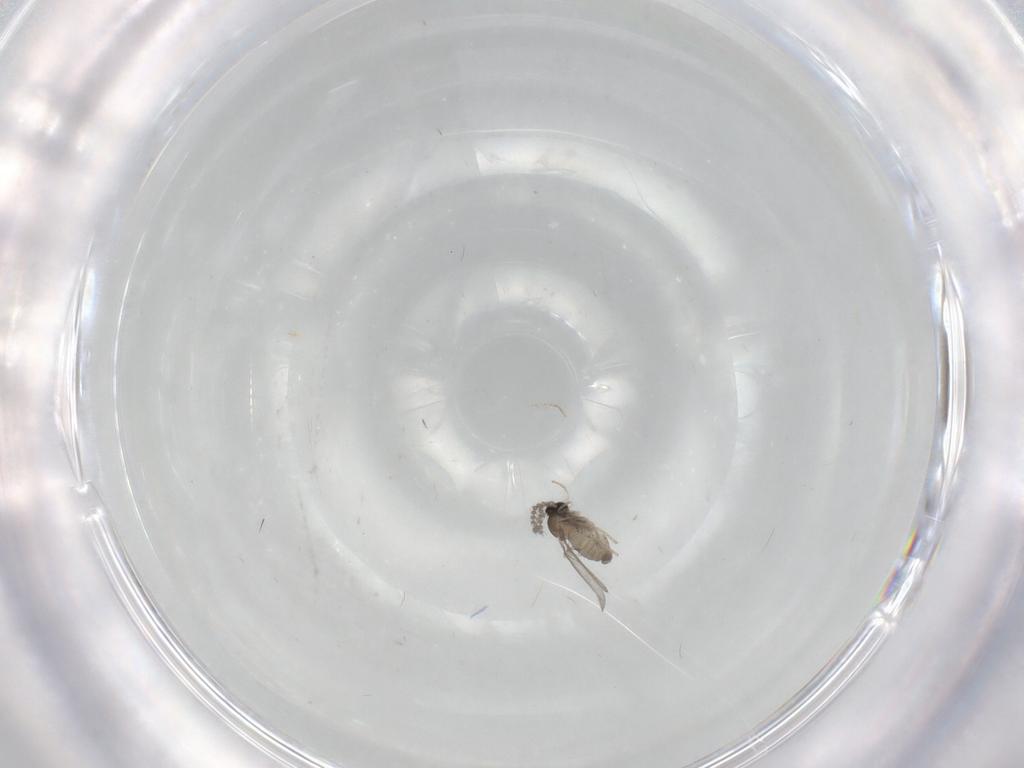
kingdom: Animalia
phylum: Arthropoda
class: Insecta
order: Diptera
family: Cecidomyiidae
